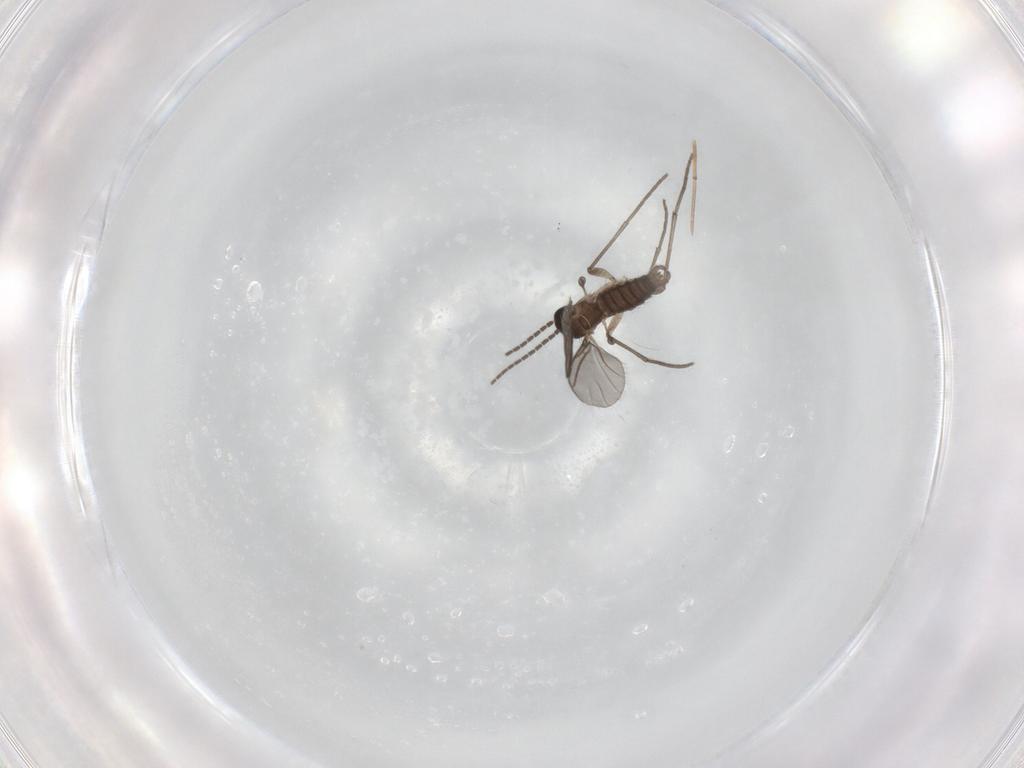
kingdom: Animalia
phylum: Arthropoda
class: Insecta
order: Diptera
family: Sciaridae
